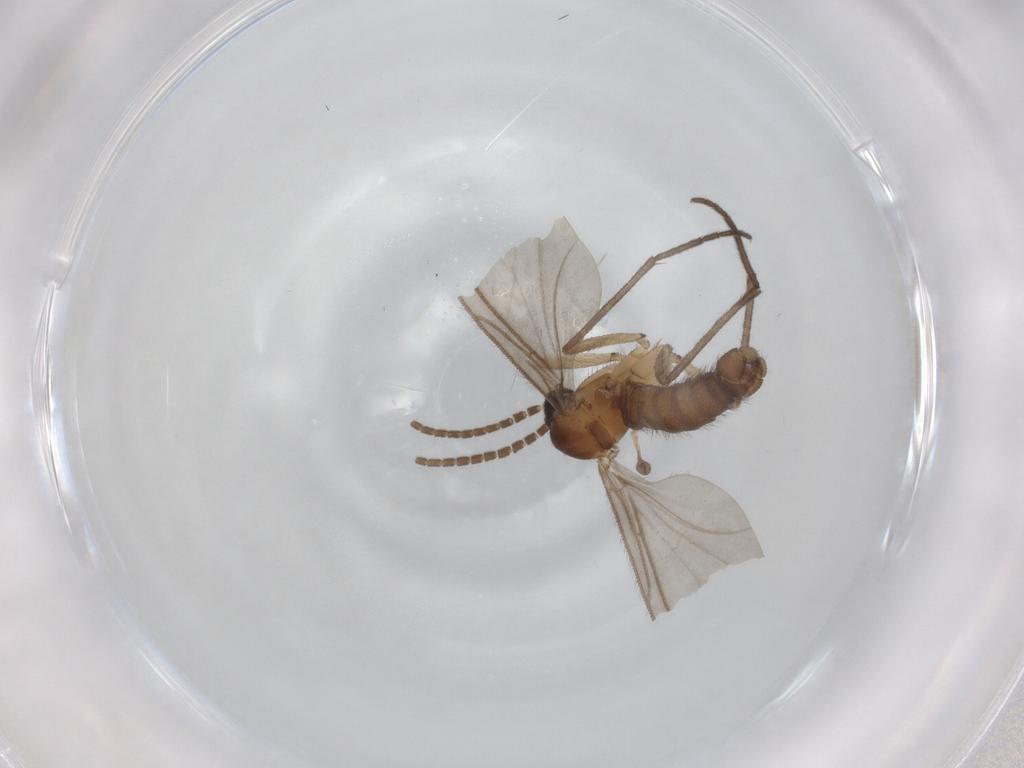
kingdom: Animalia
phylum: Arthropoda
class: Insecta
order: Diptera
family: Sciaridae
